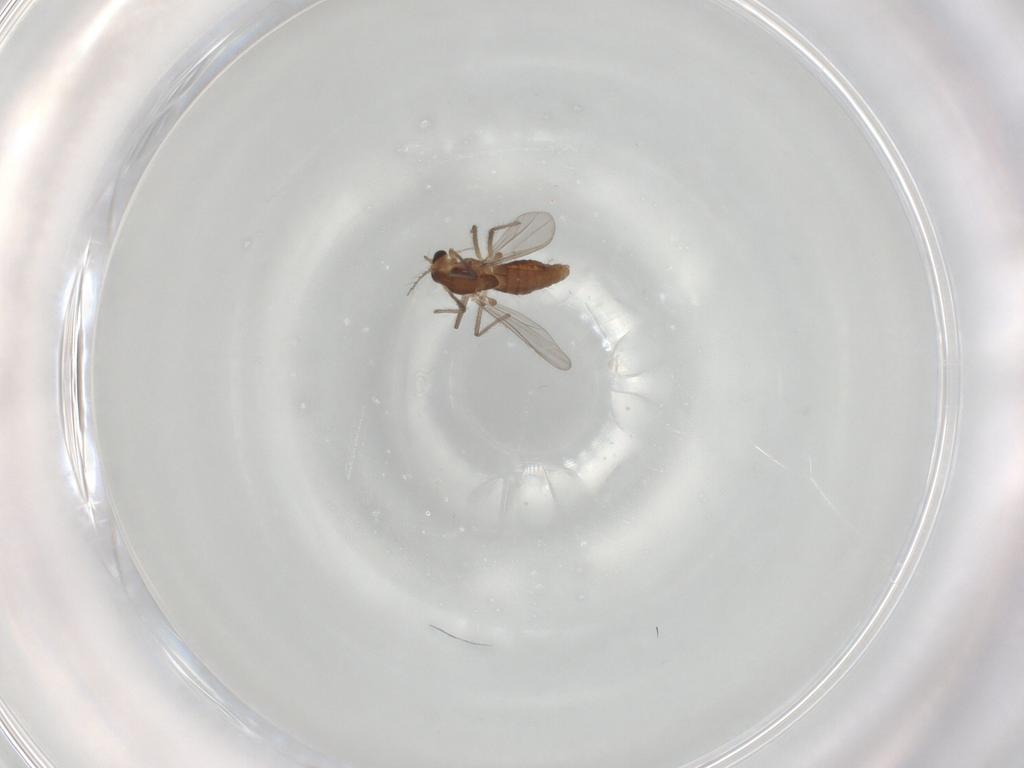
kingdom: Animalia
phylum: Arthropoda
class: Insecta
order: Diptera
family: Chironomidae
